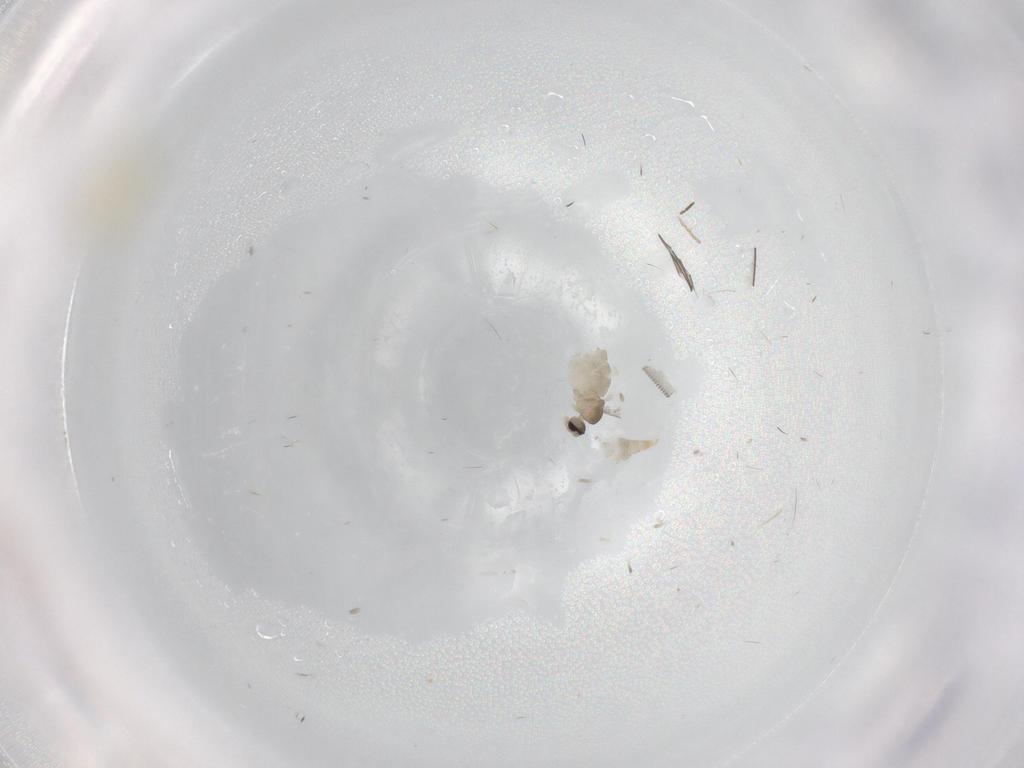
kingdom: Animalia
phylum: Arthropoda
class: Insecta
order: Diptera
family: Cecidomyiidae
